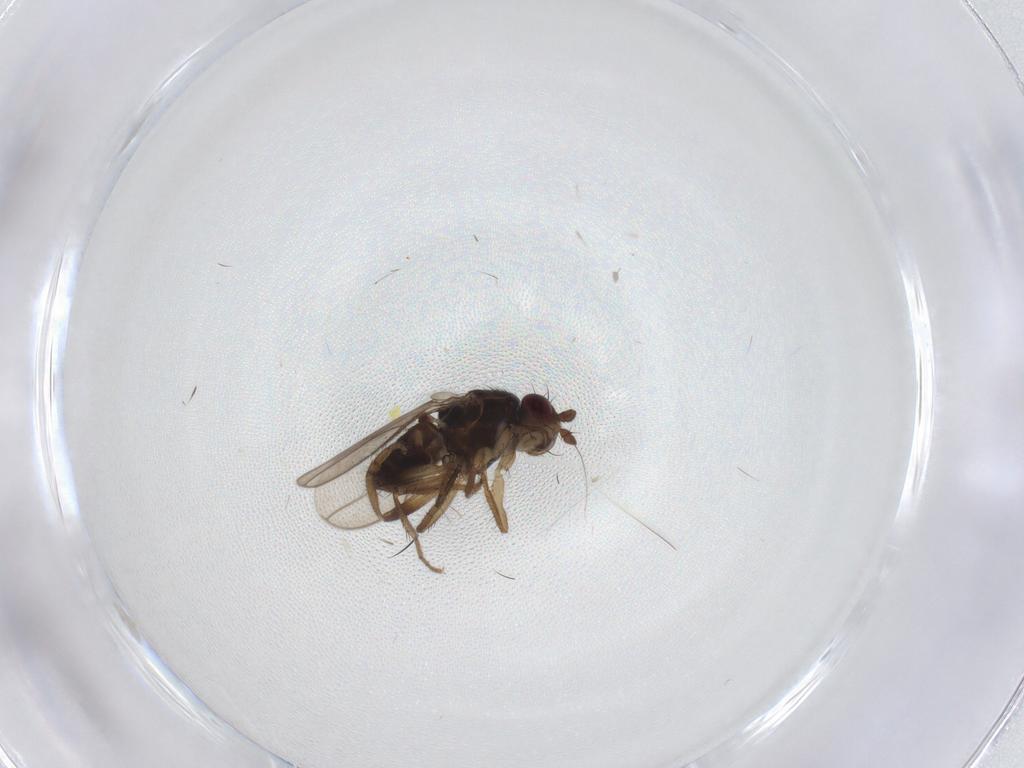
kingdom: Animalia
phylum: Arthropoda
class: Insecta
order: Diptera
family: Sphaeroceridae
